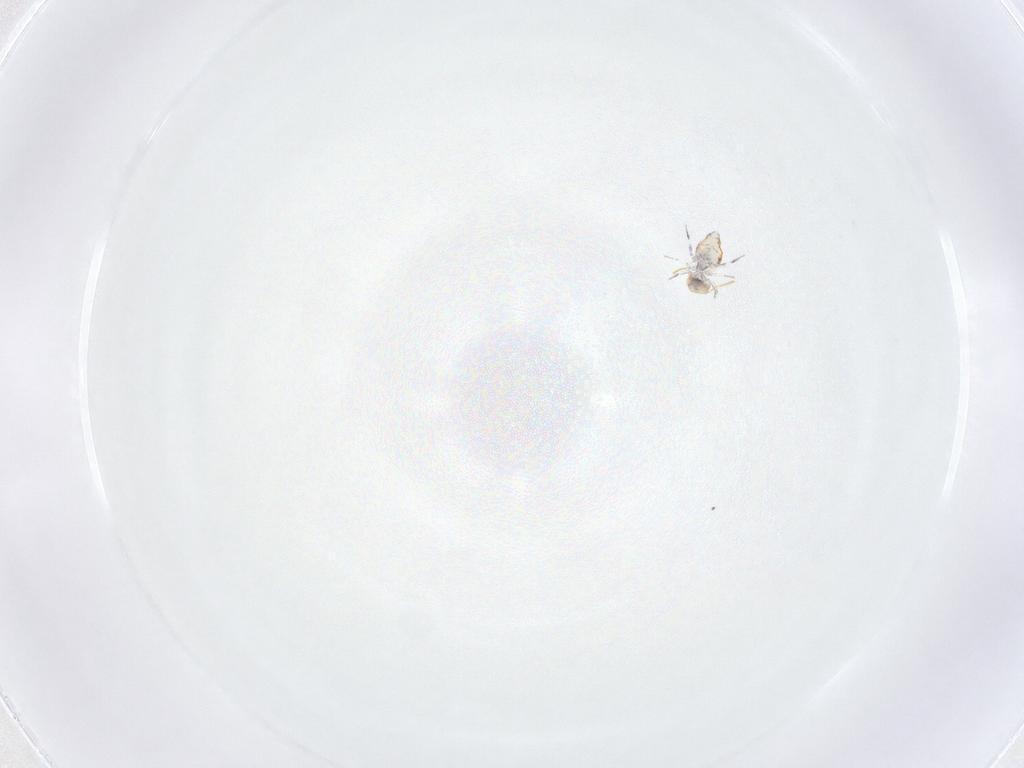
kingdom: Animalia
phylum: Arthropoda
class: Collembola
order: Symphypleona
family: Katiannidae
